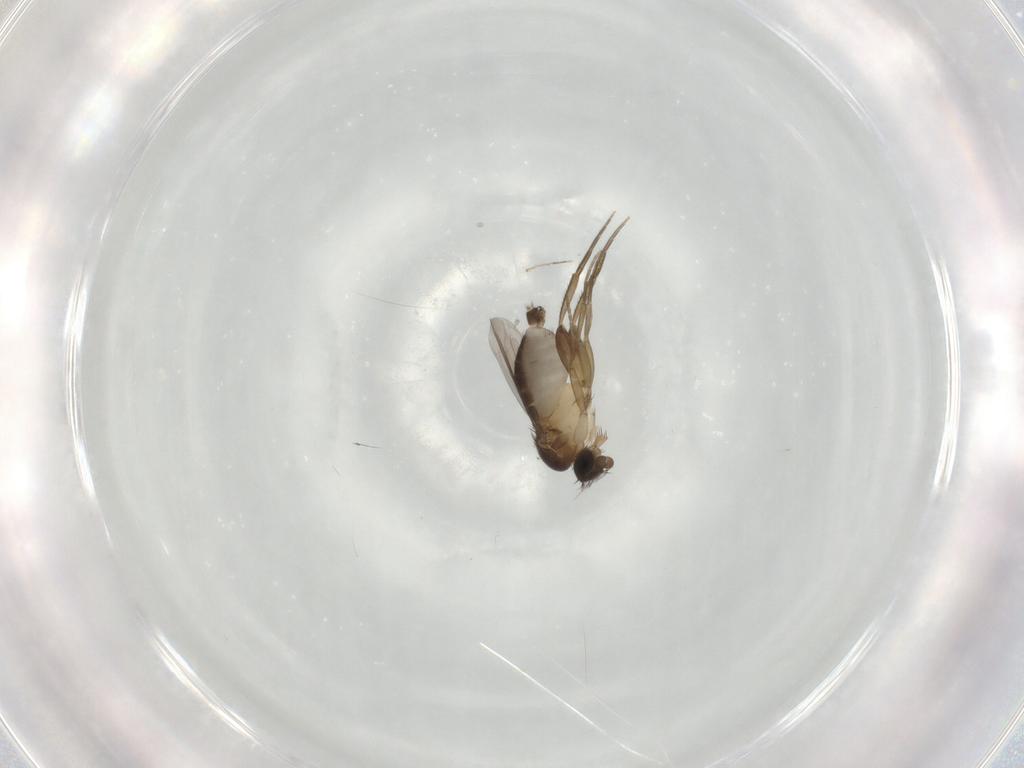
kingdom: Animalia
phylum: Arthropoda
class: Insecta
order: Diptera
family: Phoridae
